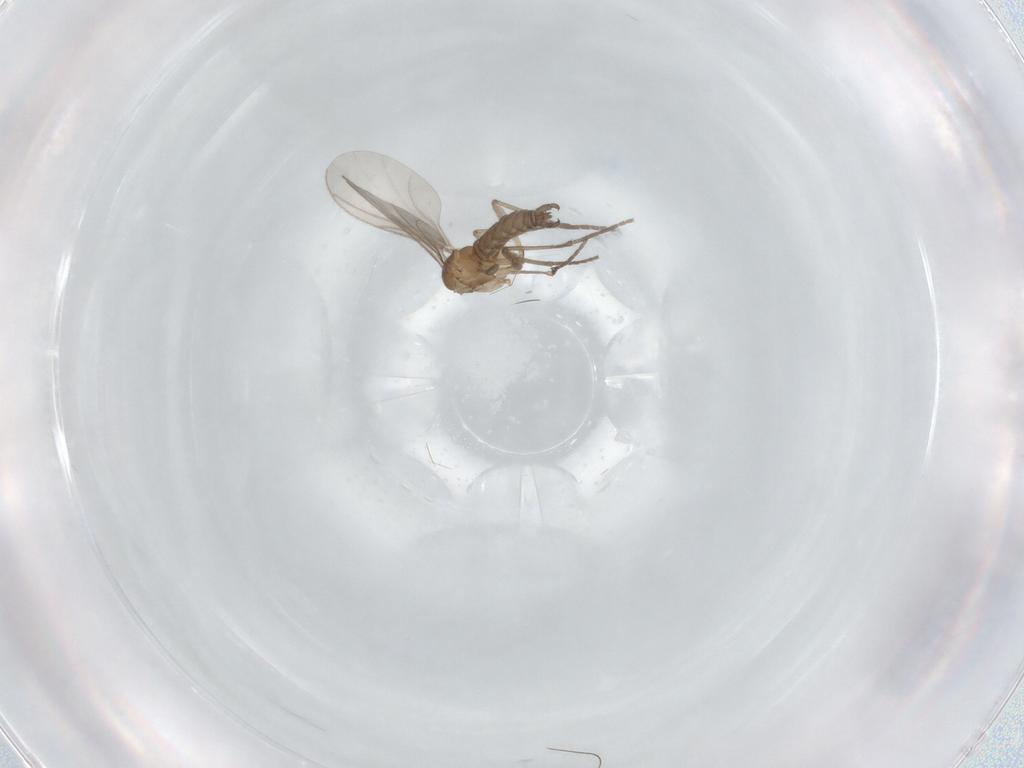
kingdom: Animalia
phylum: Arthropoda
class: Insecta
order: Diptera
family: Sciaridae
